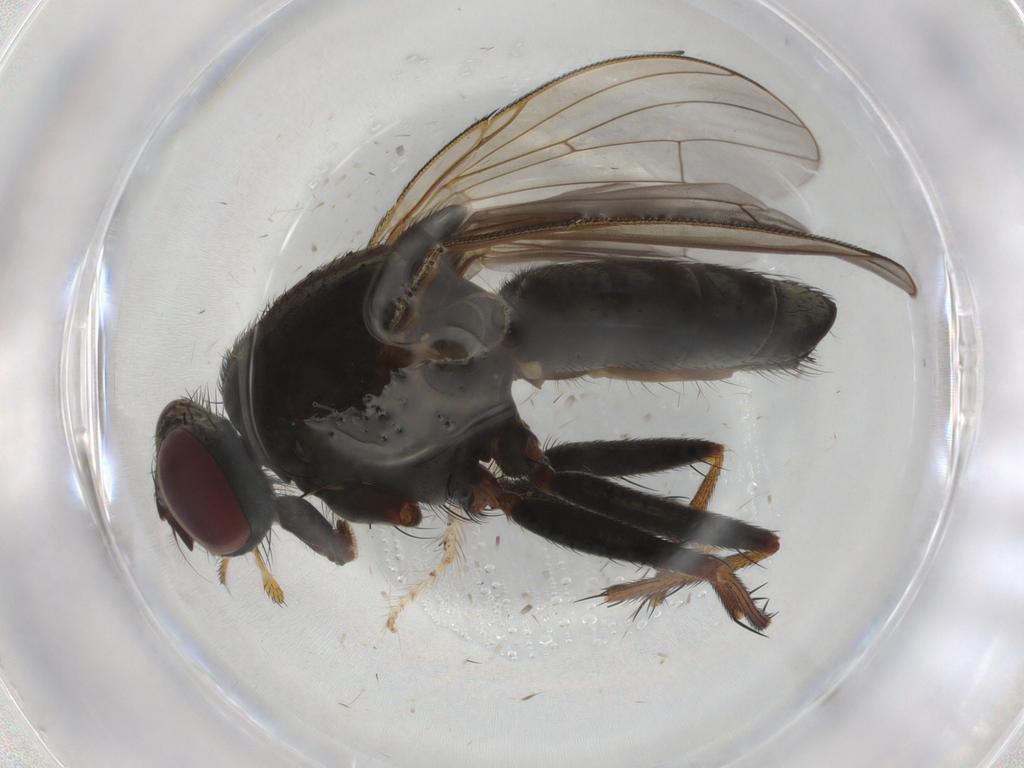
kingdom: Animalia
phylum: Arthropoda
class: Insecta
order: Diptera
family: Muscidae
